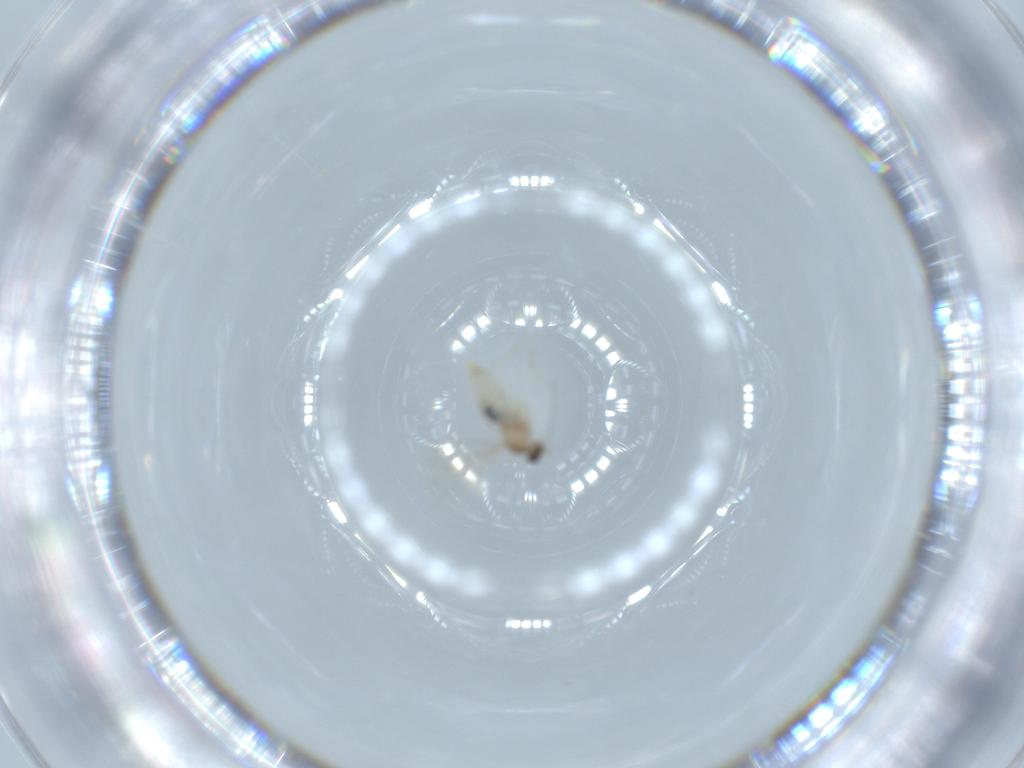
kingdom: Animalia
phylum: Arthropoda
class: Insecta
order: Diptera
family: Cecidomyiidae
